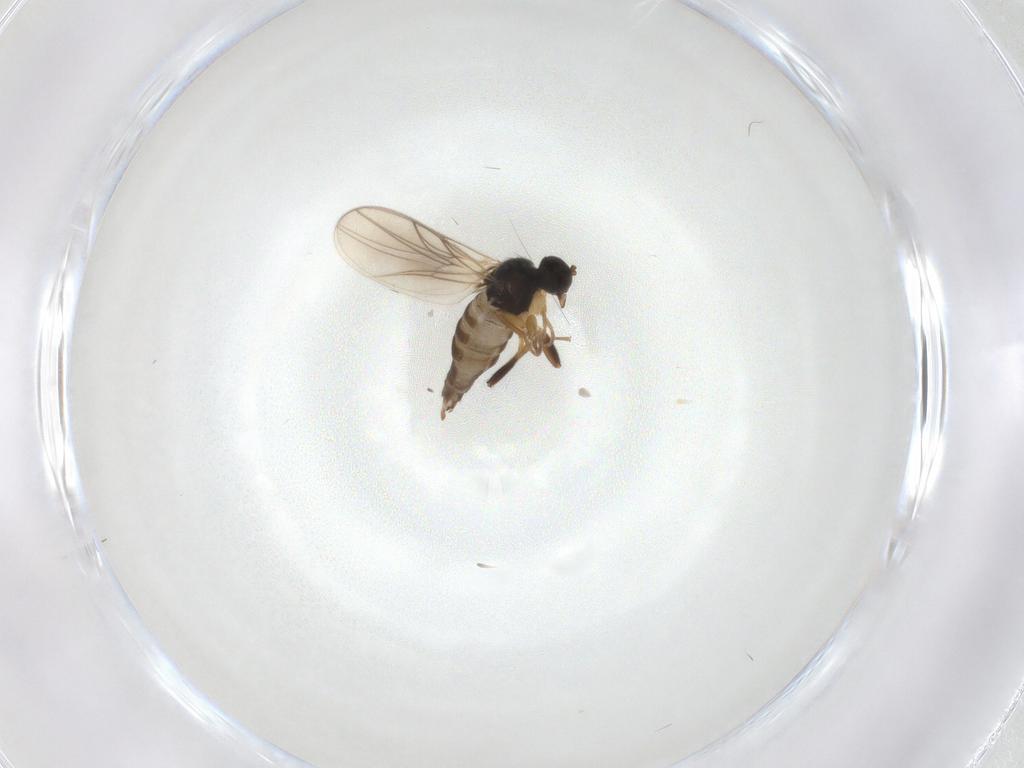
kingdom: Animalia
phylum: Arthropoda
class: Insecta
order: Diptera
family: Hybotidae
